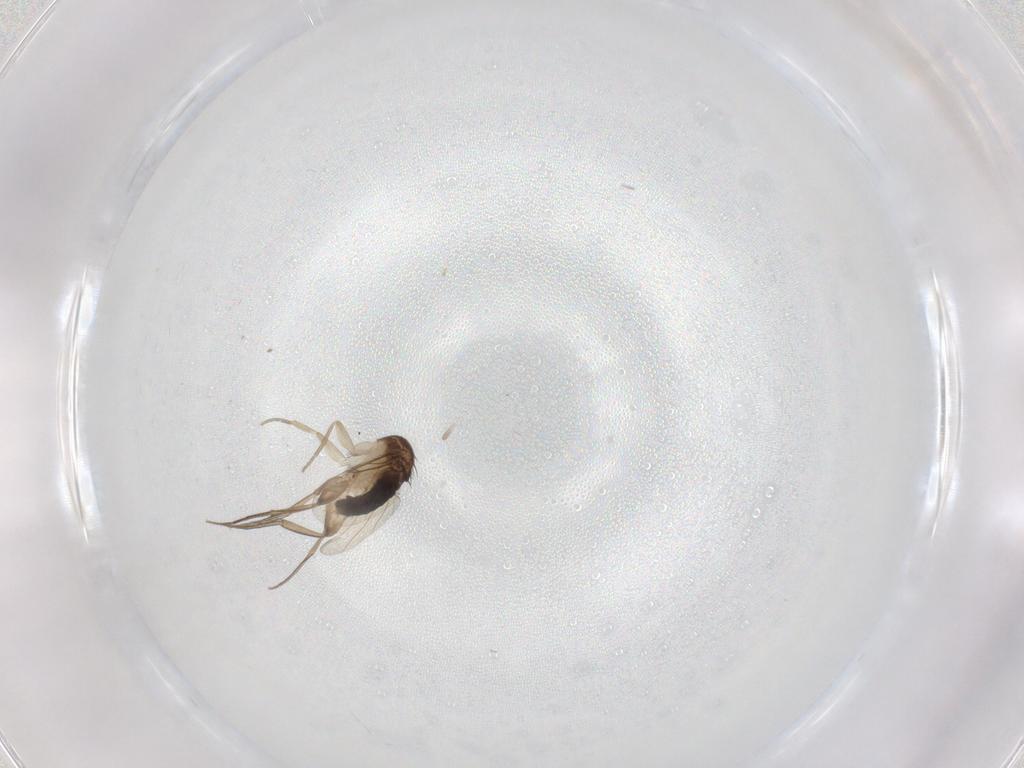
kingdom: Animalia
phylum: Arthropoda
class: Insecta
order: Diptera
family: Phoridae
